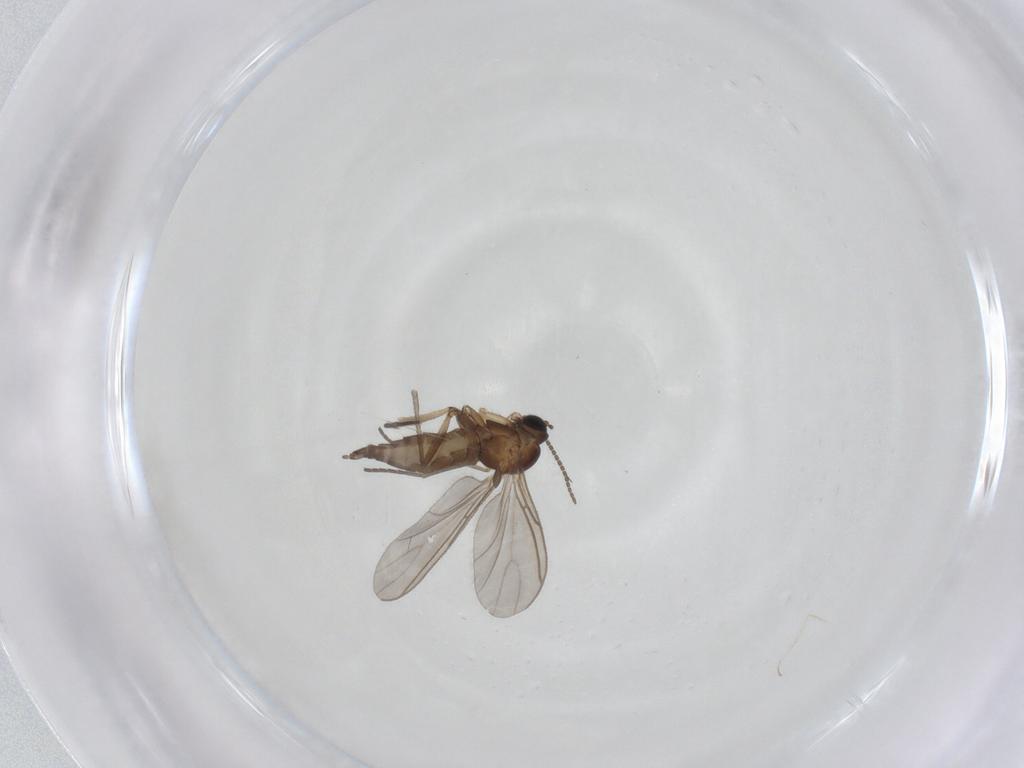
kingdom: Animalia
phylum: Arthropoda
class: Insecta
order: Diptera
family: Sciaridae
